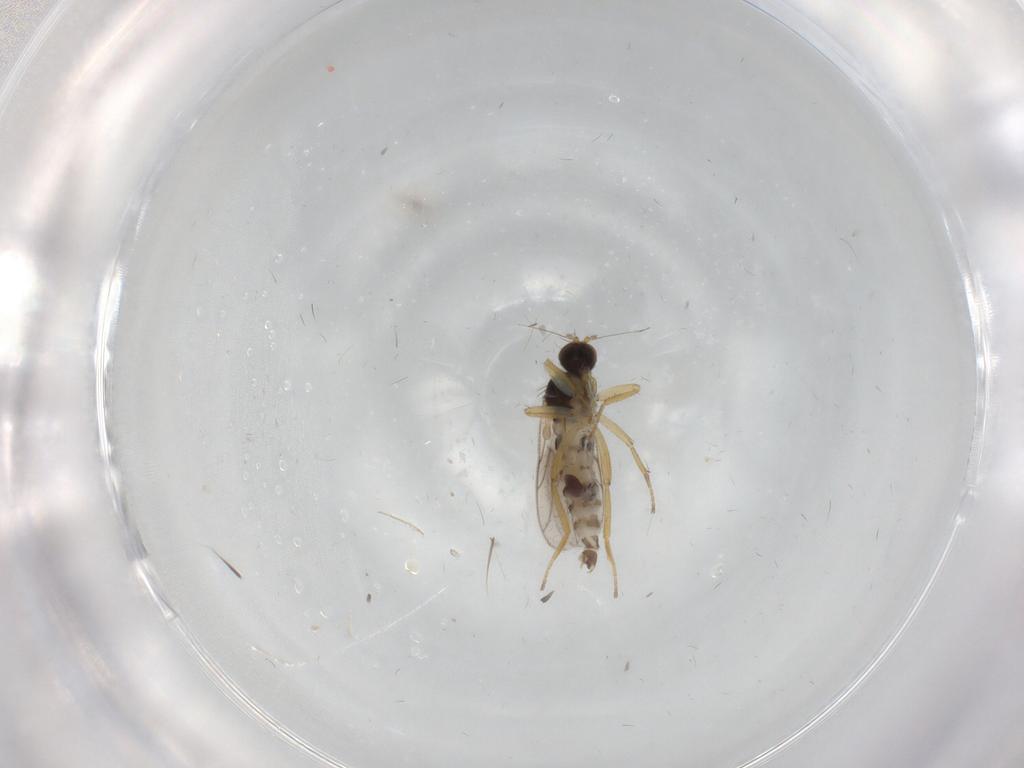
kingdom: Animalia
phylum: Arthropoda
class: Insecta
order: Diptera
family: Hybotidae
